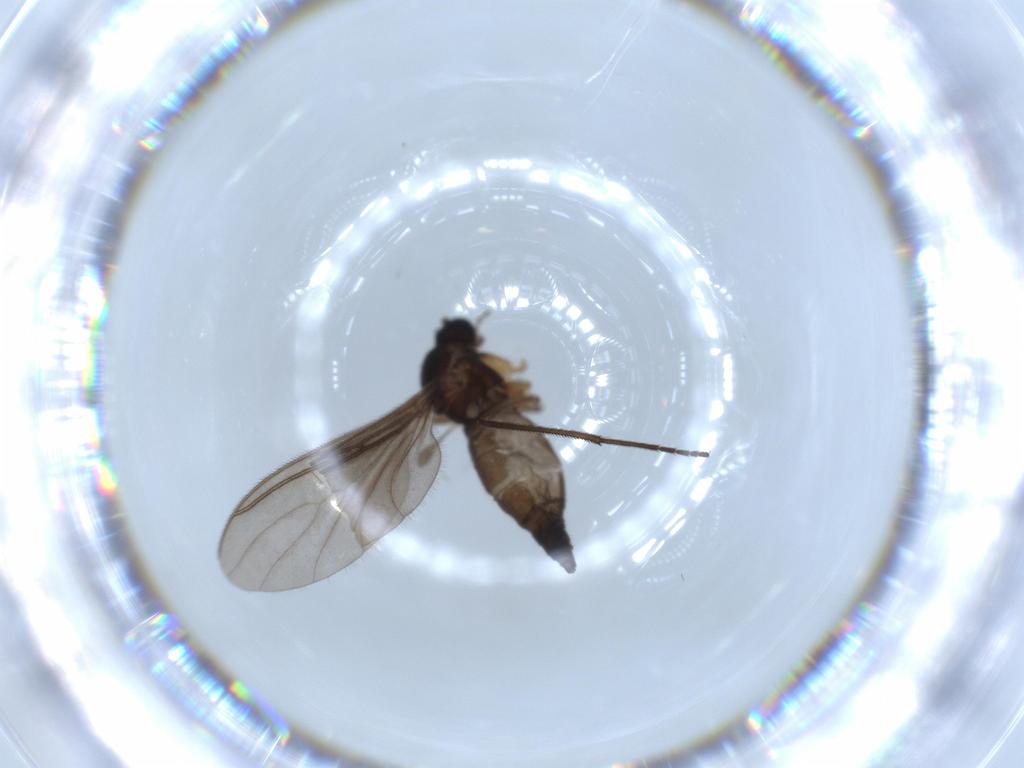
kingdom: Animalia
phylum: Arthropoda
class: Insecta
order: Diptera
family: Sciaridae
